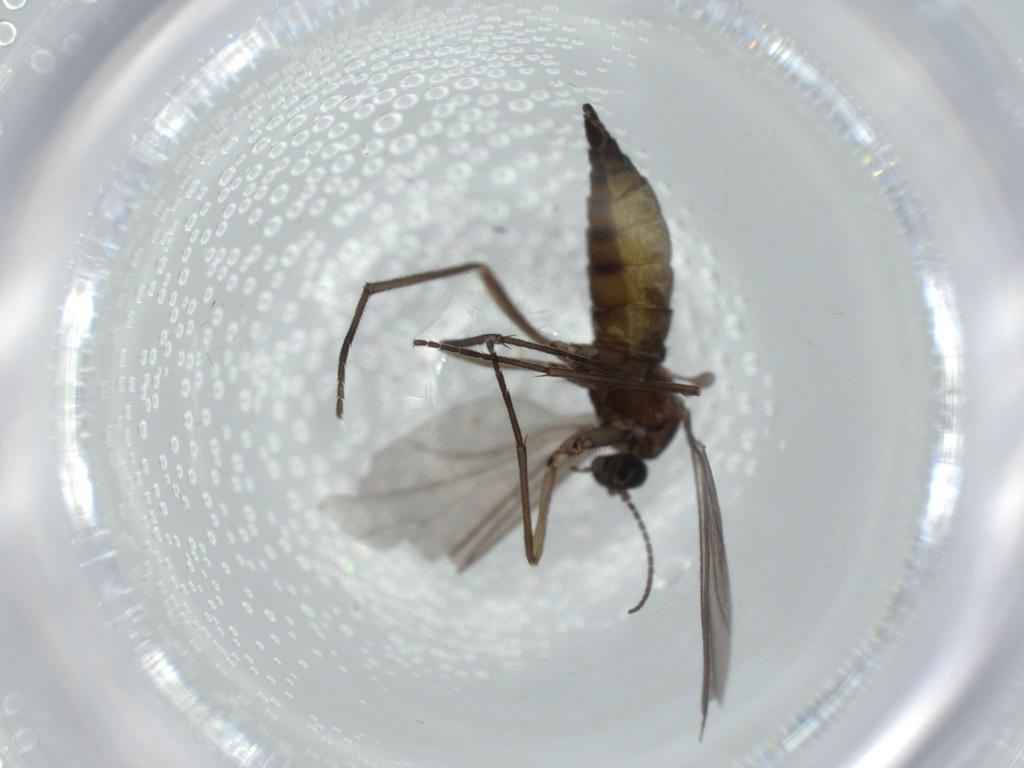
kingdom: Animalia
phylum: Arthropoda
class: Insecta
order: Diptera
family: Sciaridae
